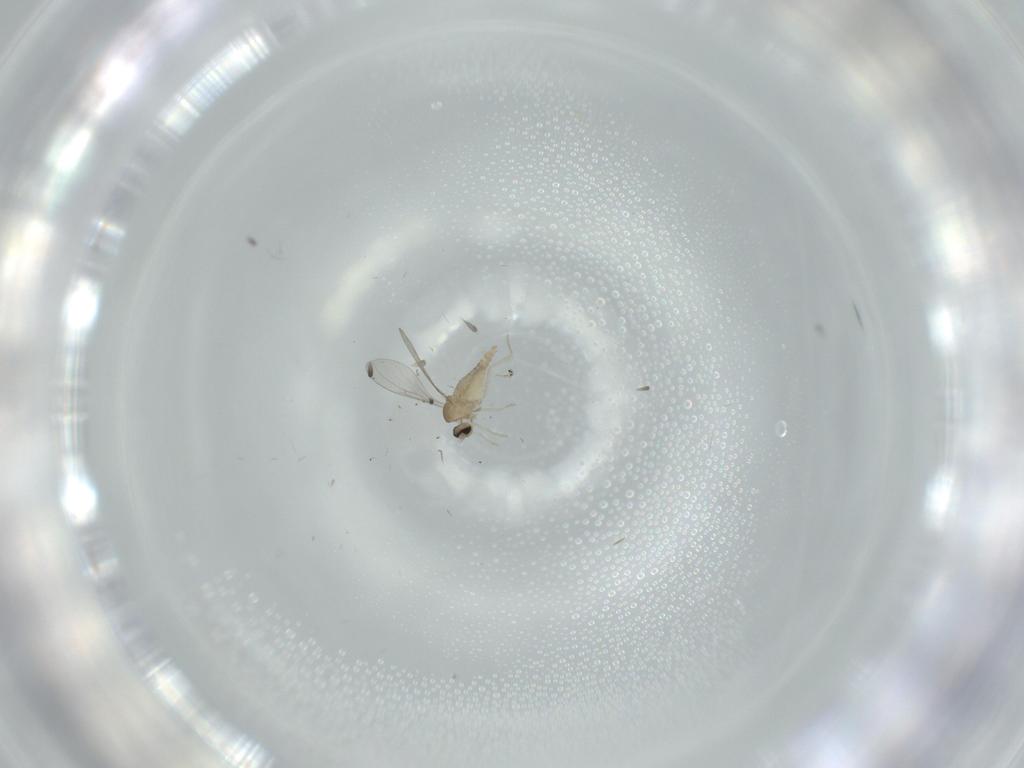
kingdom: Animalia
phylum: Arthropoda
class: Insecta
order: Diptera
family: Cecidomyiidae
